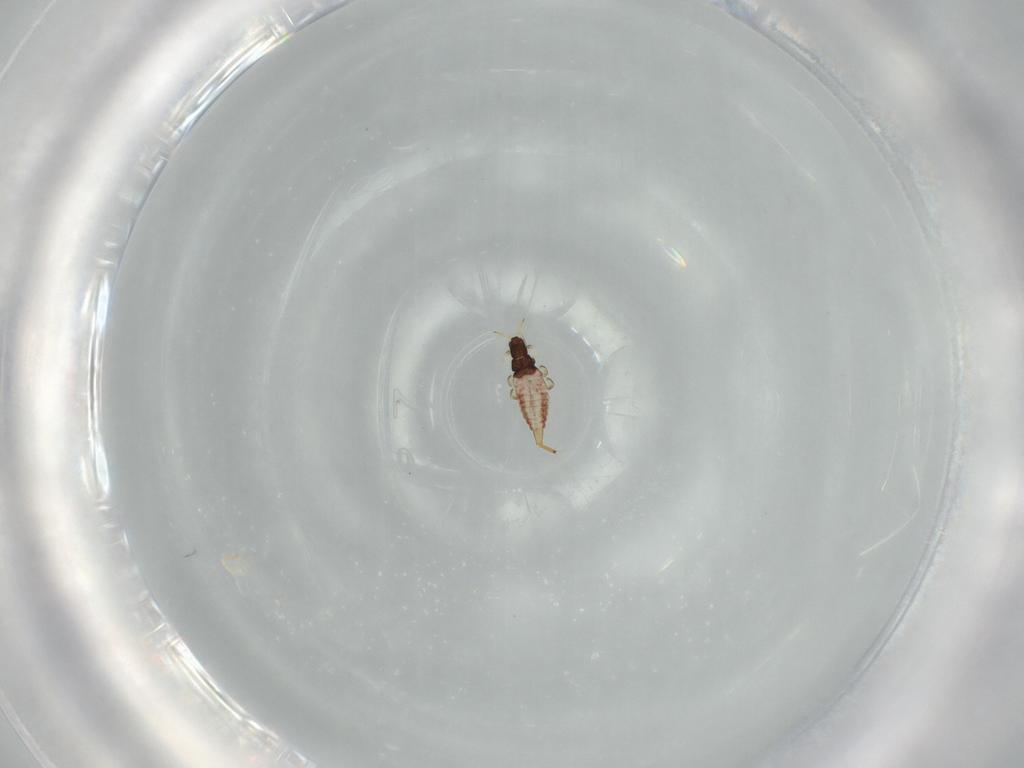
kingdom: Animalia
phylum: Arthropoda
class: Insecta
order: Thysanoptera
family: Phlaeothripidae
